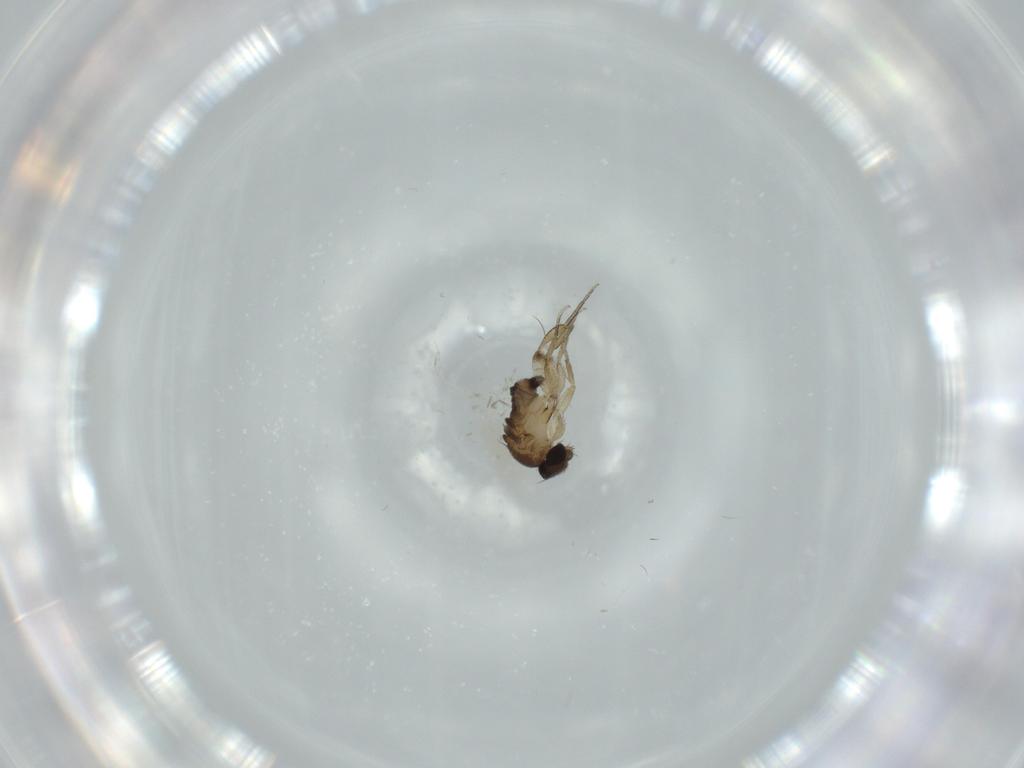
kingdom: Animalia
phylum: Arthropoda
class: Insecta
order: Diptera
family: Phoridae
